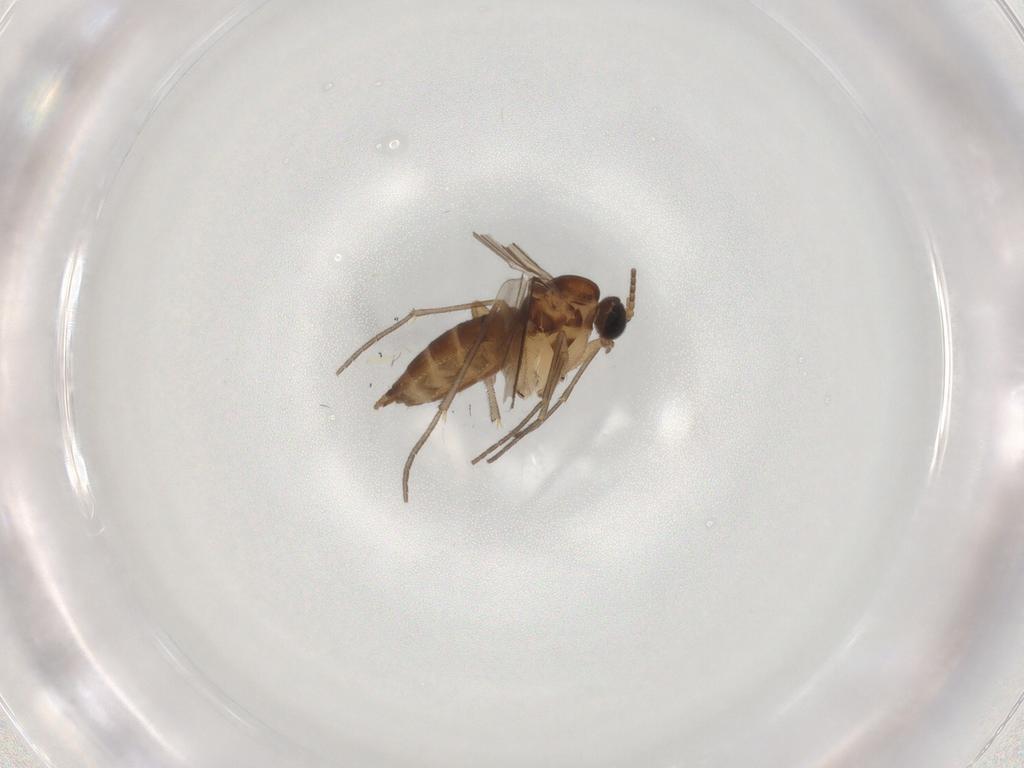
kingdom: Animalia
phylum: Arthropoda
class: Insecta
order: Diptera
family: Sciaridae
